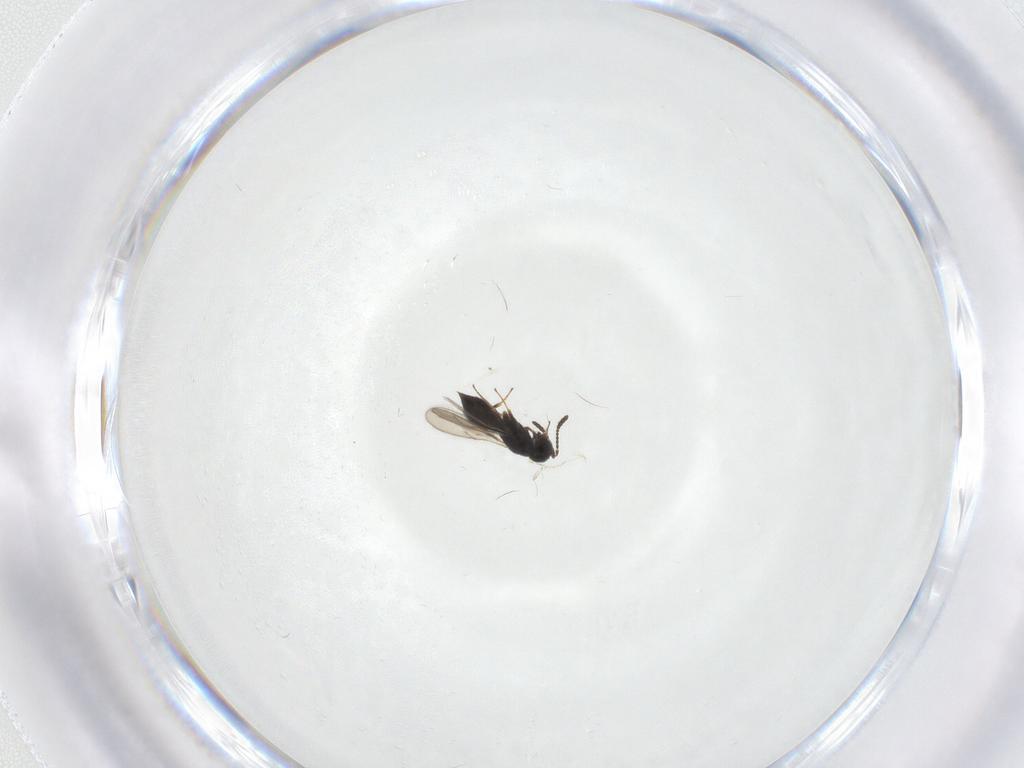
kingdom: Animalia
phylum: Arthropoda
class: Insecta
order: Hymenoptera
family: Scelionidae
